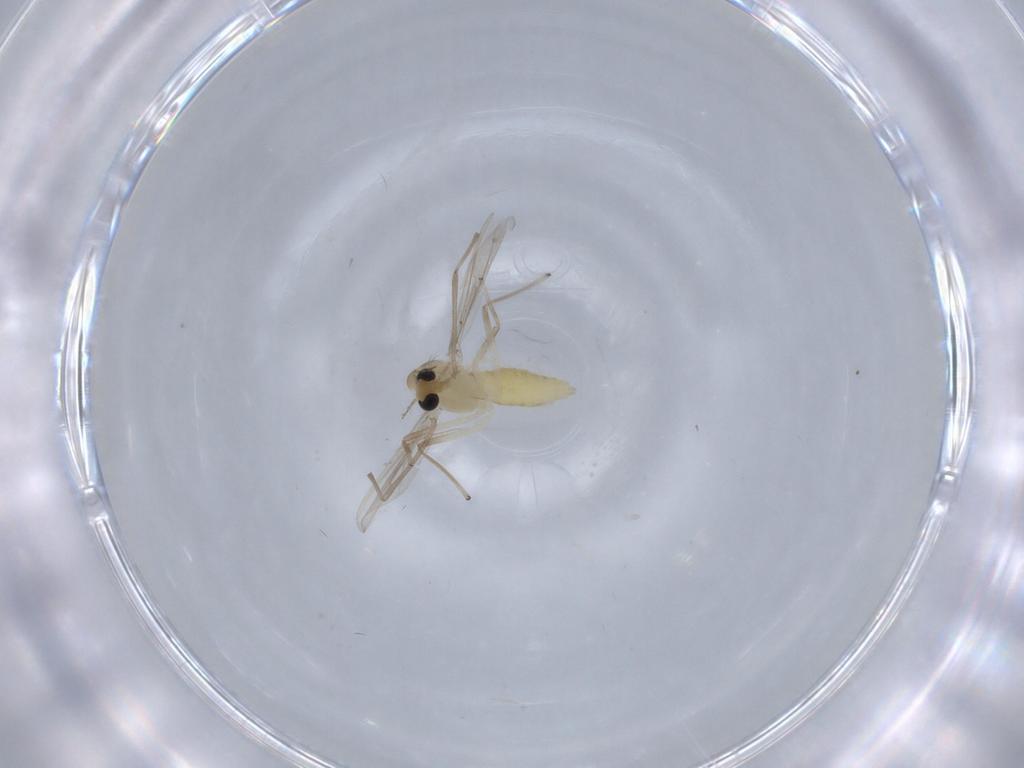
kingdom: Animalia
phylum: Arthropoda
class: Insecta
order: Diptera
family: Chironomidae
